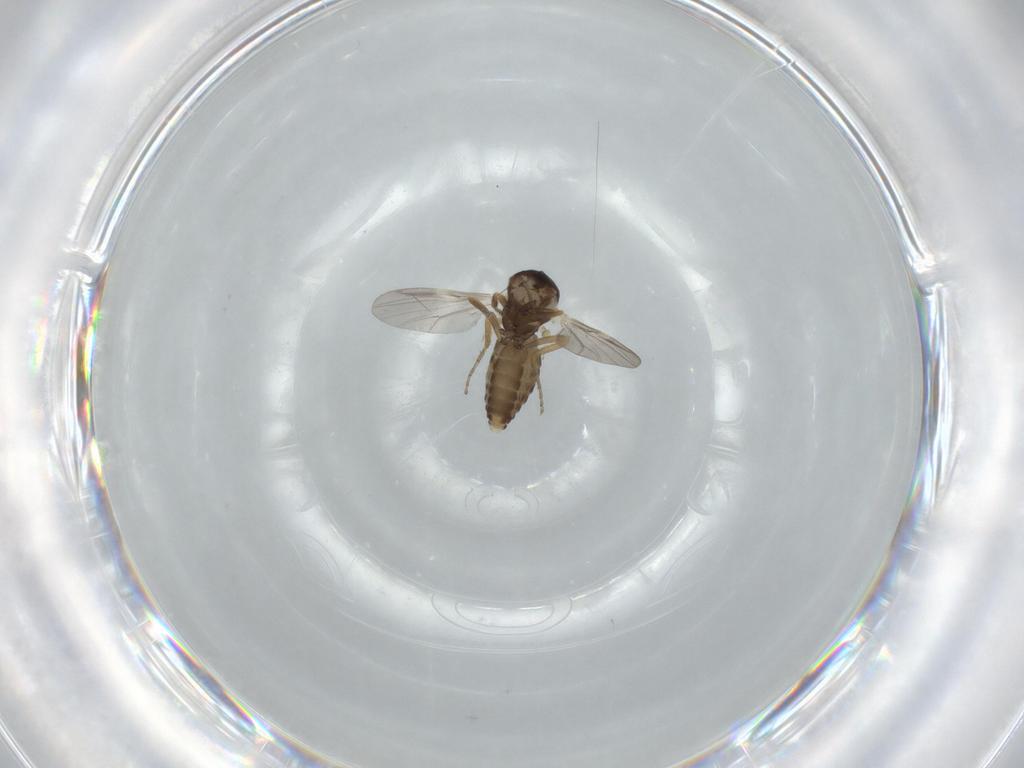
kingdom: Animalia
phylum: Arthropoda
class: Insecta
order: Diptera
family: Ceratopogonidae
